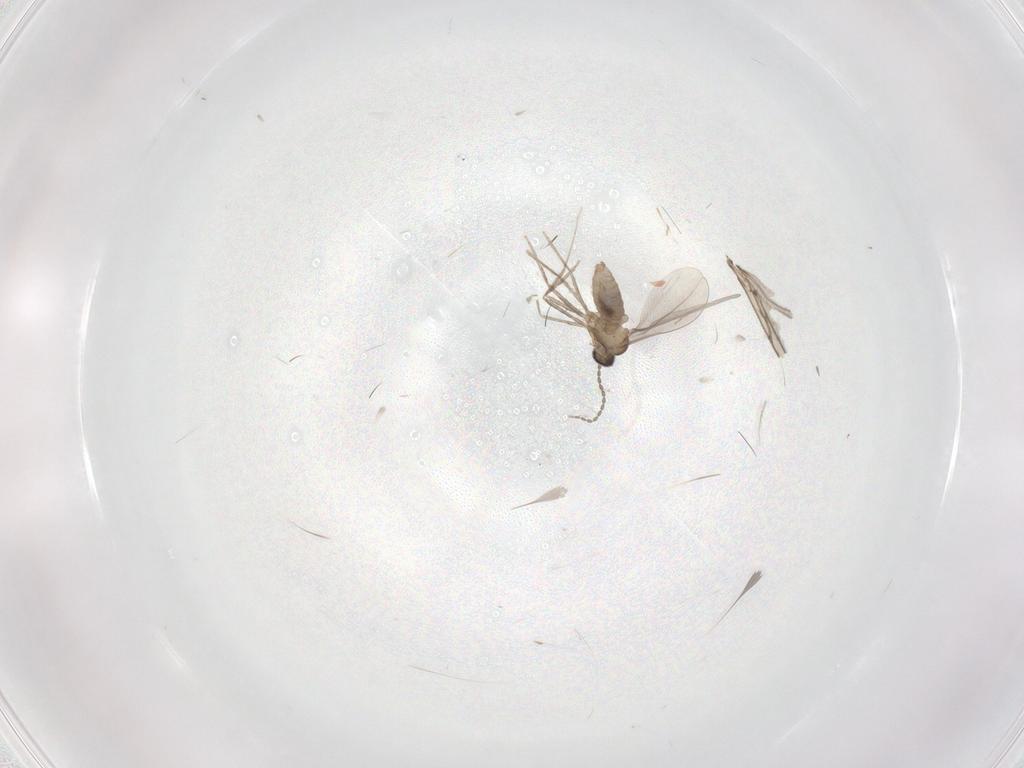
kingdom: Animalia
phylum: Arthropoda
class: Insecta
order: Diptera
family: Cecidomyiidae
